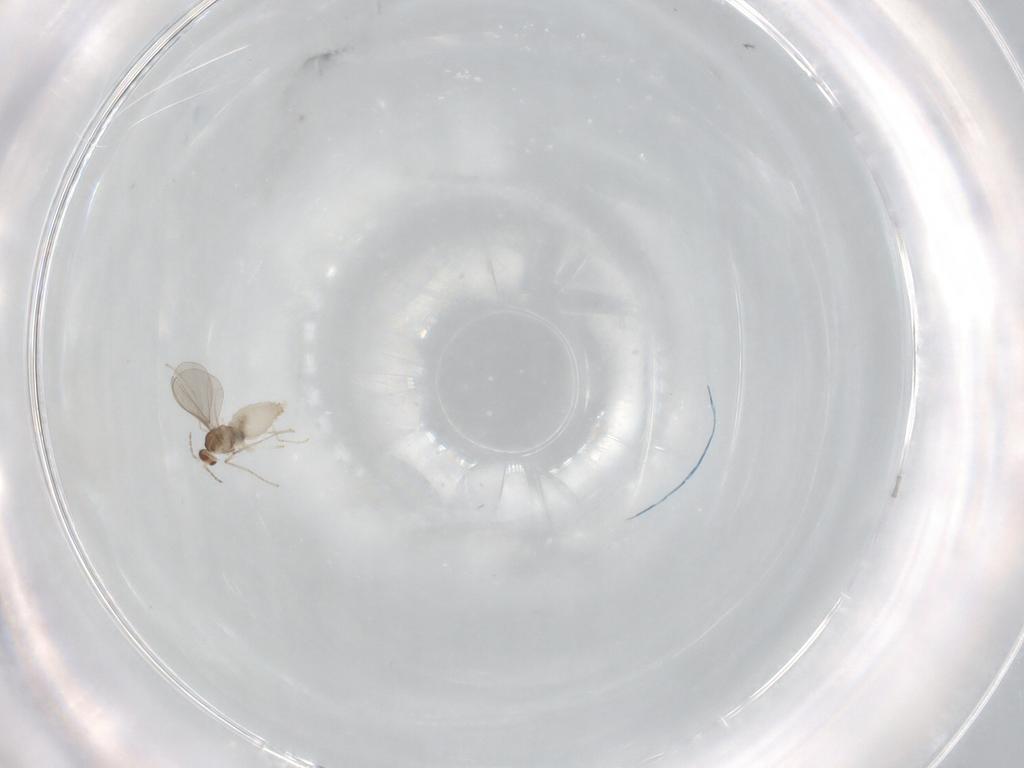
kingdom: Animalia
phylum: Arthropoda
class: Insecta
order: Diptera
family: Cecidomyiidae
